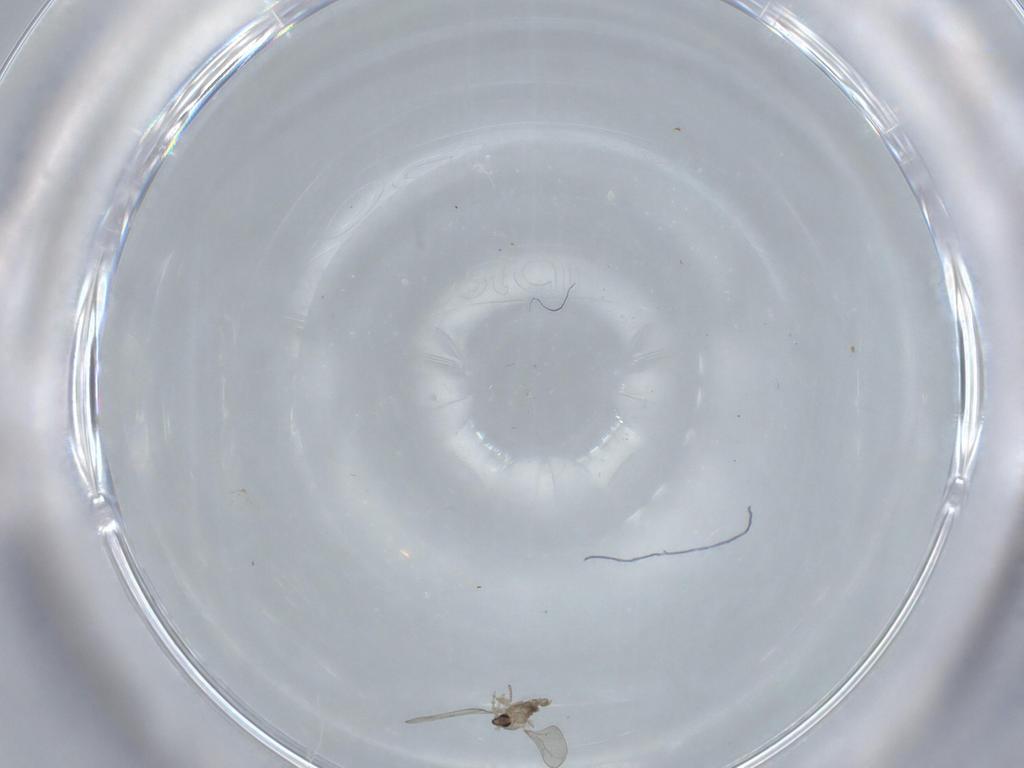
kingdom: Animalia
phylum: Arthropoda
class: Insecta
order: Diptera
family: Cecidomyiidae
